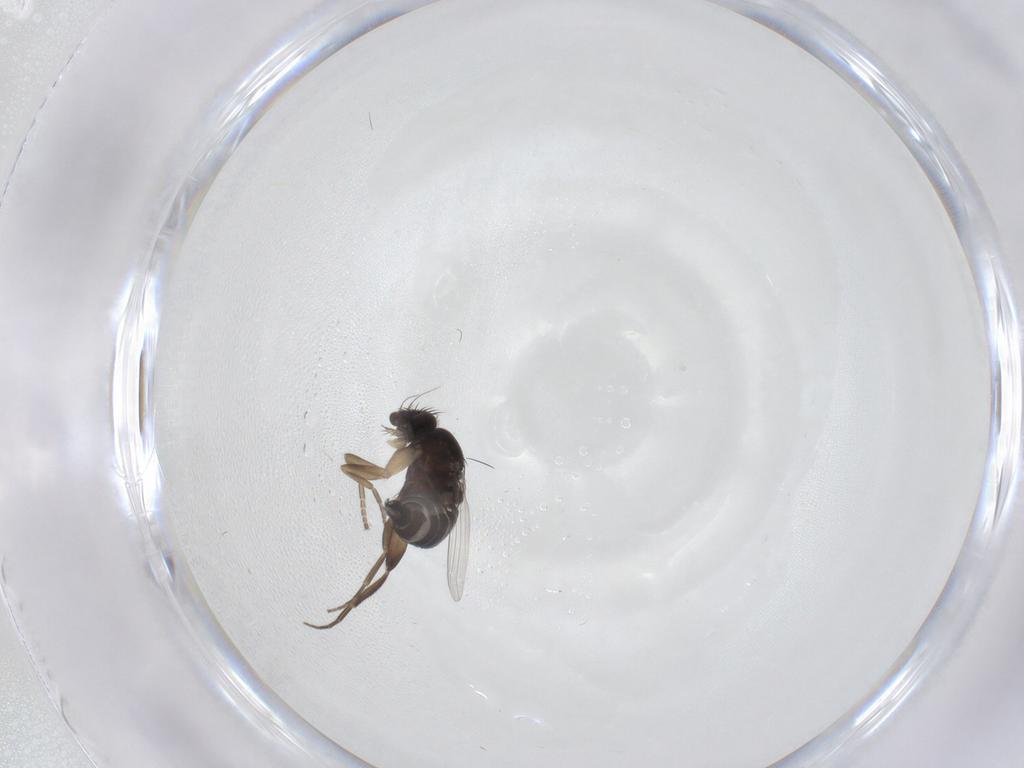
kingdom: Animalia
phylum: Arthropoda
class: Insecta
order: Diptera
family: Phoridae
